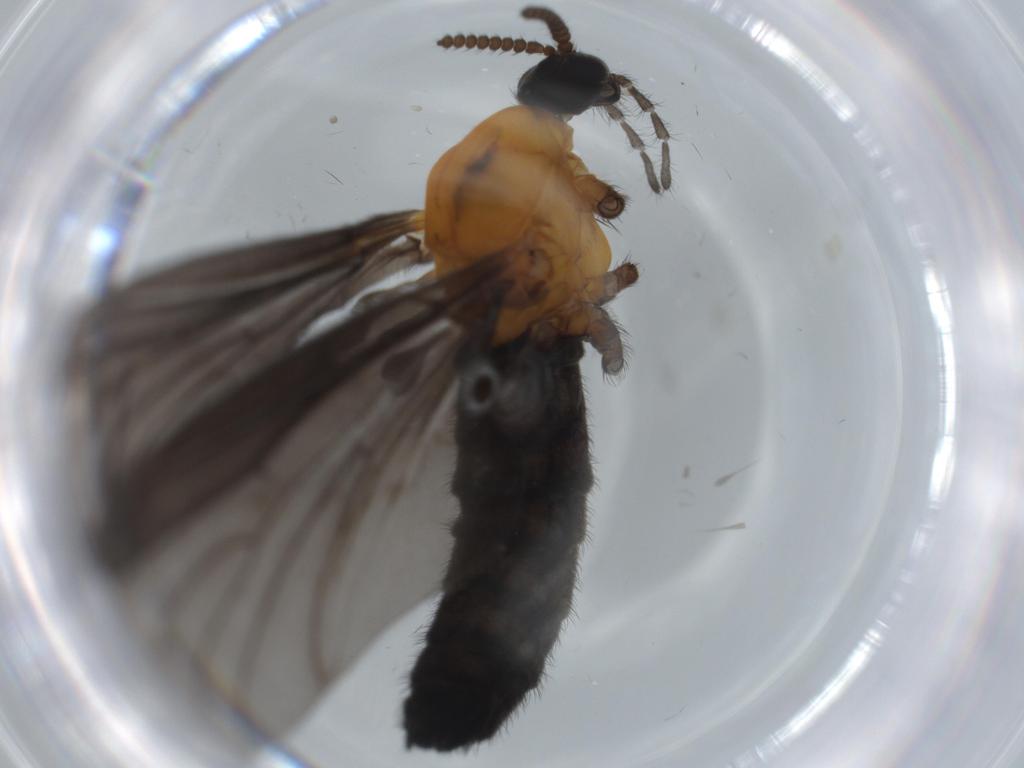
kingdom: Animalia
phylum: Arthropoda
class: Insecta
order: Diptera
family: Bibionidae
